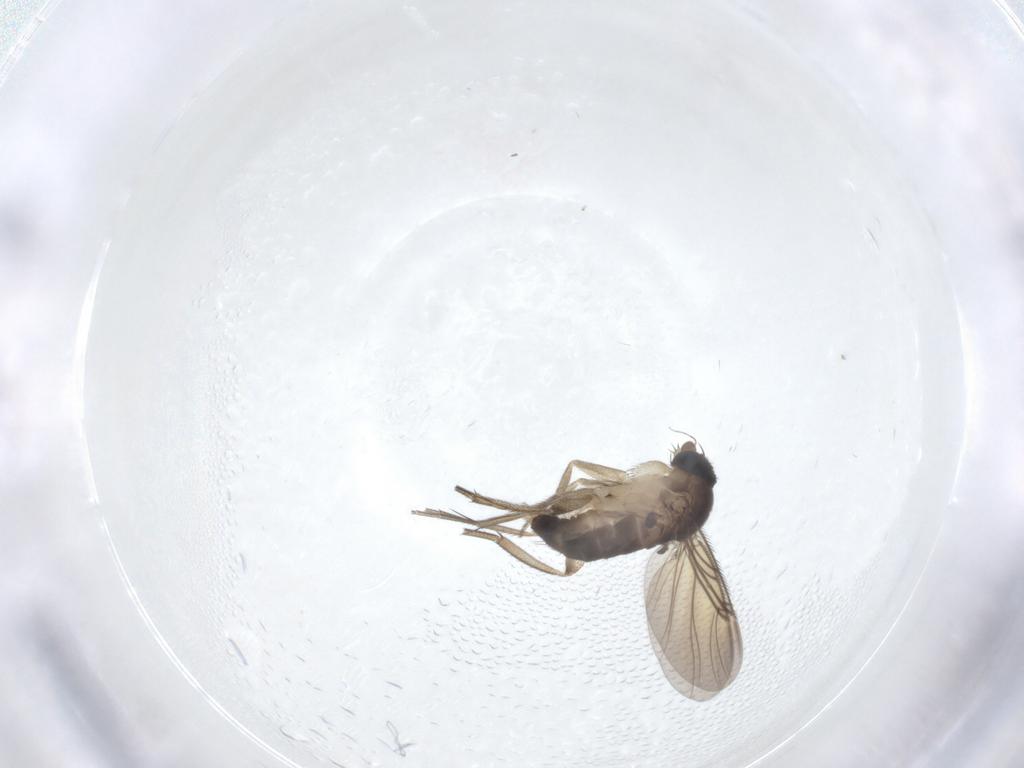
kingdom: Animalia
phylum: Arthropoda
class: Insecta
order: Diptera
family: Phoridae
